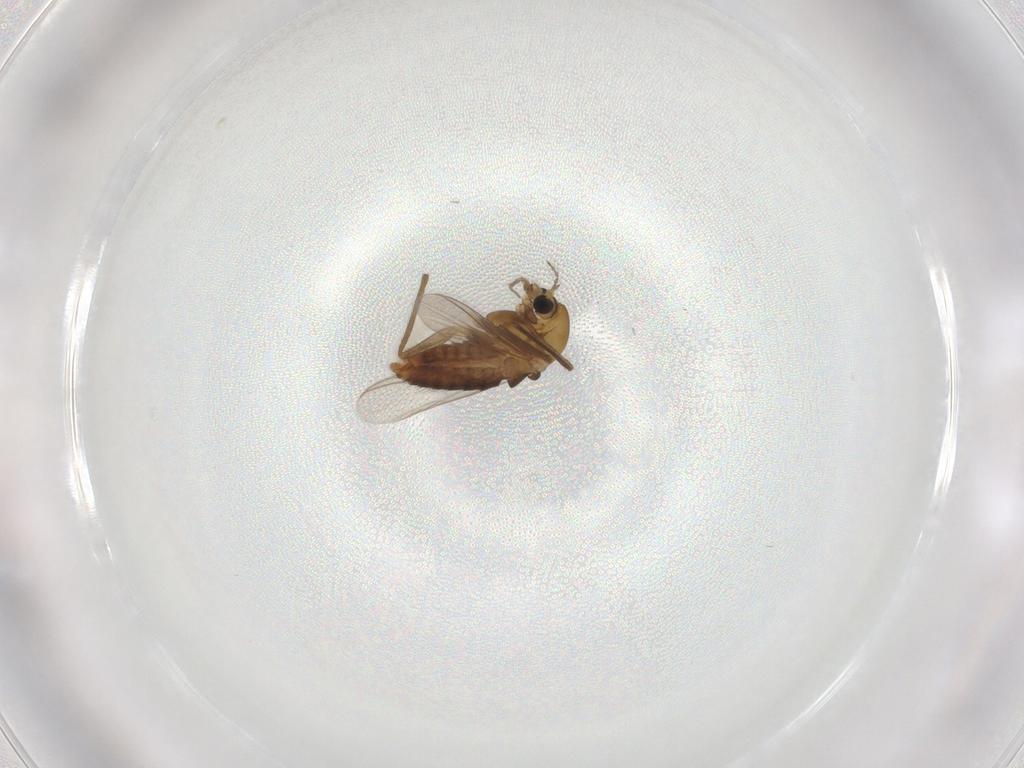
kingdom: Animalia
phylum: Arthropoda
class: Insecta
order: Diptera
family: Chironomidae
